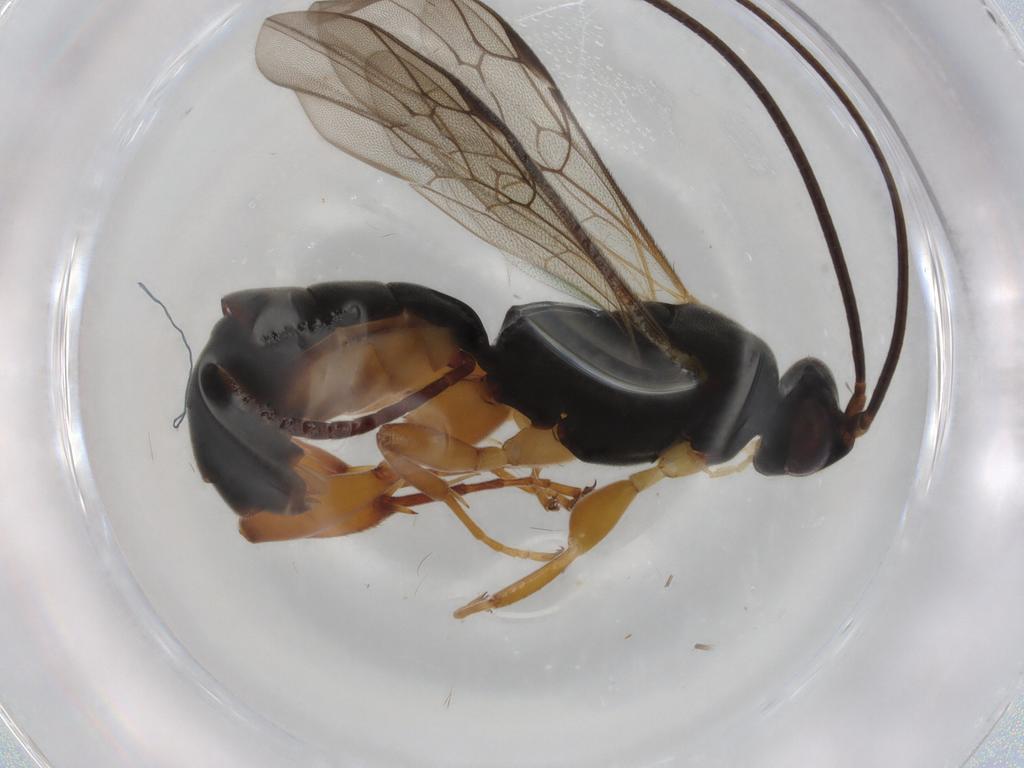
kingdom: Animalia
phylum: Arthropoda
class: Insecta
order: Hymenoptera
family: Ichneumonidae
